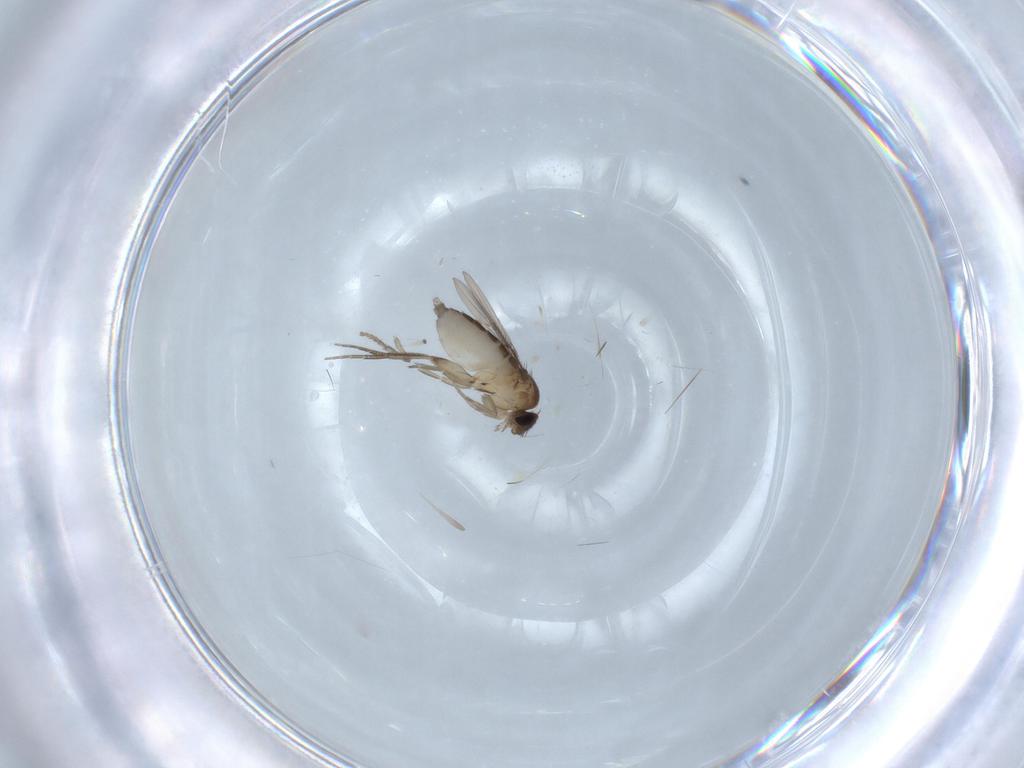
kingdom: Animalia
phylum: Arthropoda
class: Insecta
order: Diptera
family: Phoridae
